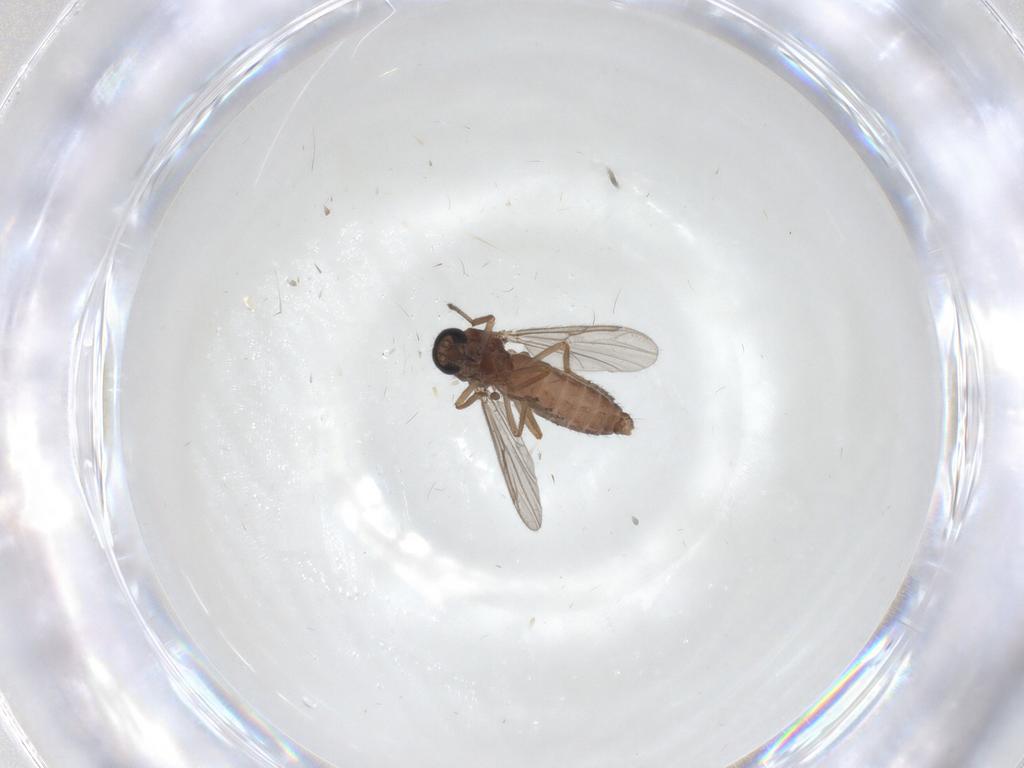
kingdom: Animalia
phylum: Arthropoda
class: Insecta
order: Diptera
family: Ceratopogonidae
